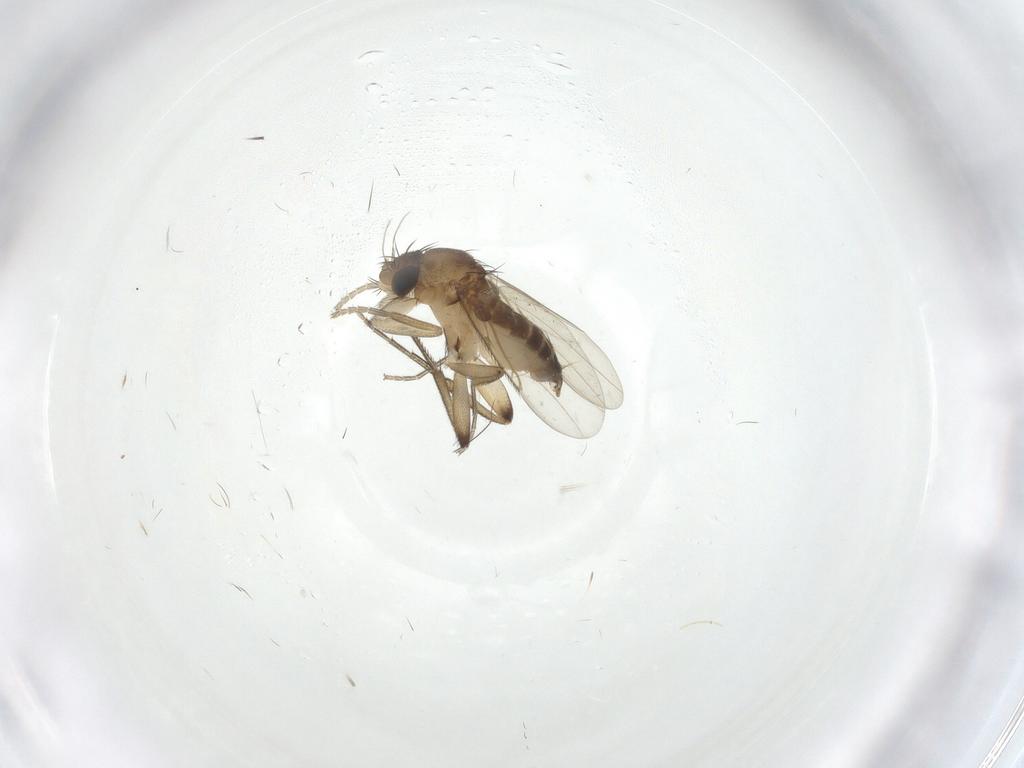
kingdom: Animalia
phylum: Arthropoda
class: Insecta
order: Diptera
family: Phoridae
